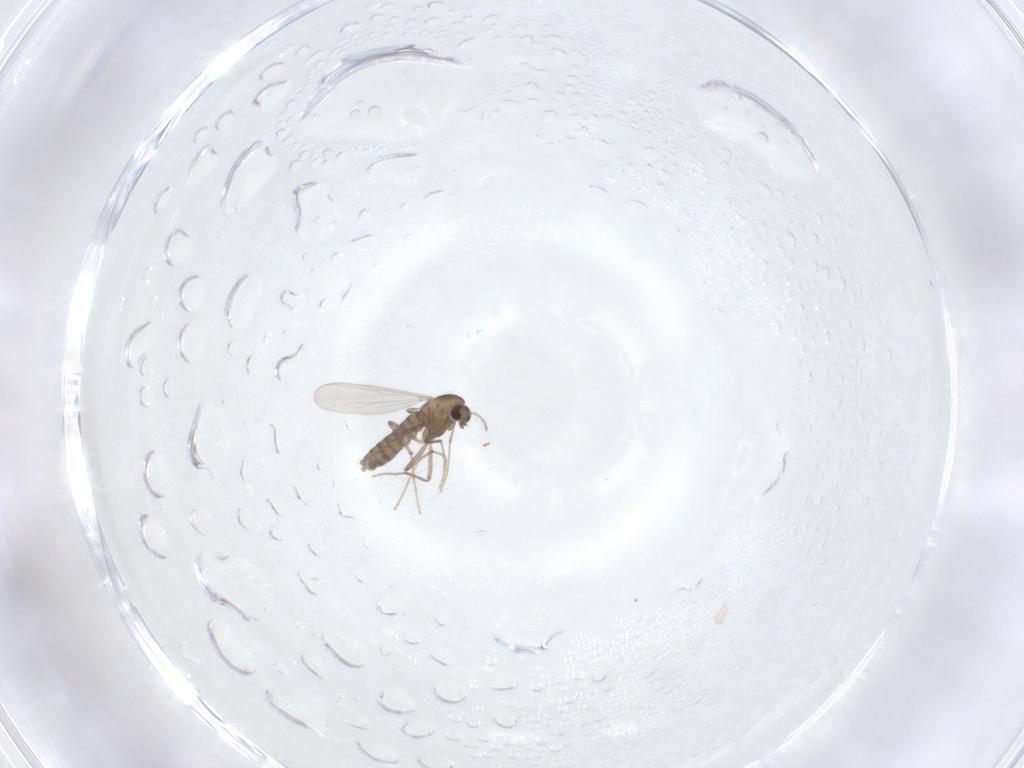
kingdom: Animalia
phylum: Arthropoda
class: Insecta
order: Diptera
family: Chironomidae
